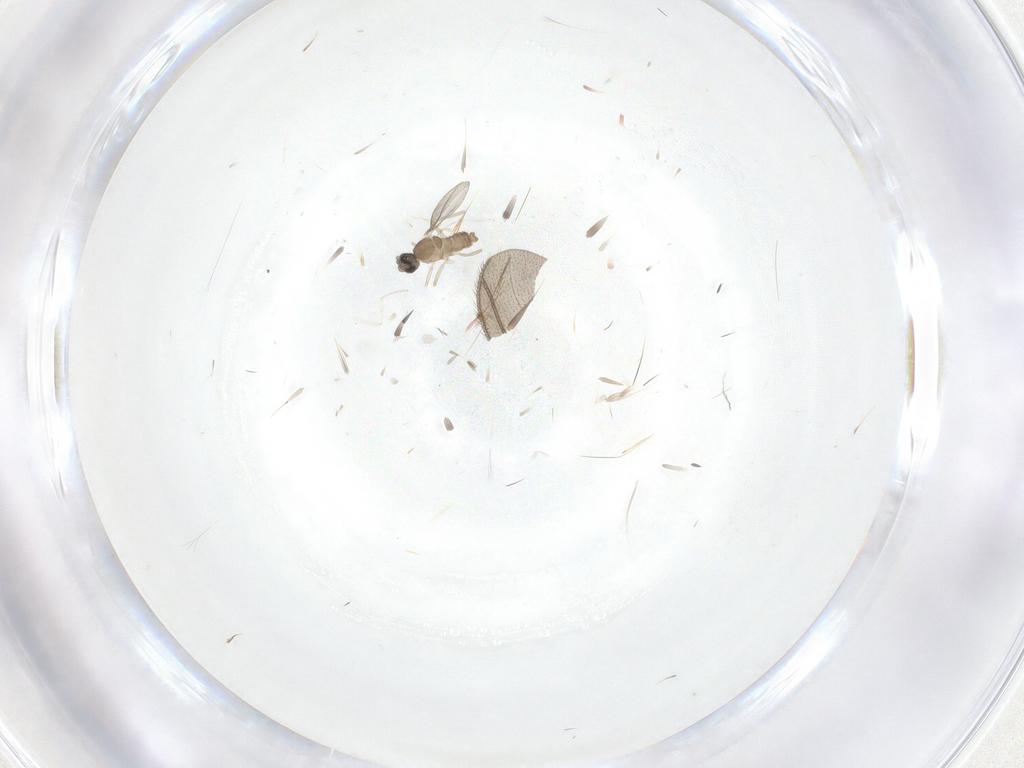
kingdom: Animalia
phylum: Arthropoda
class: Insecta
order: Diptera
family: Cecidomyiidae
